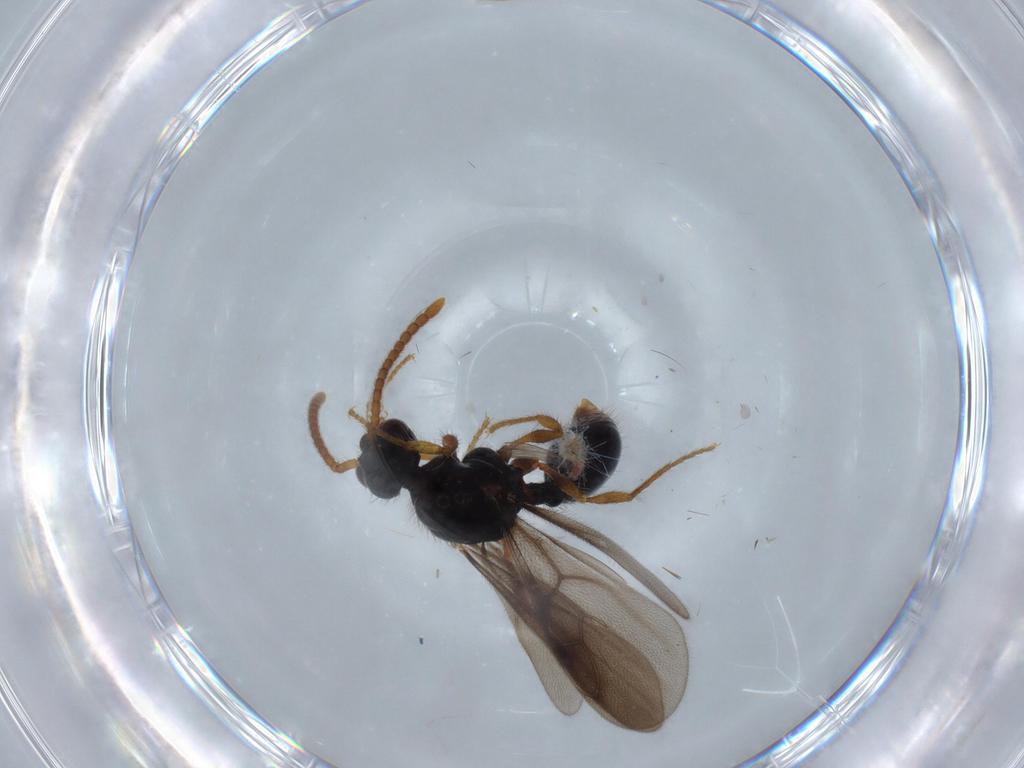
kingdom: Animalia
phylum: Arthropoda
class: Insecta
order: Hymenoptera
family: Formicidae
